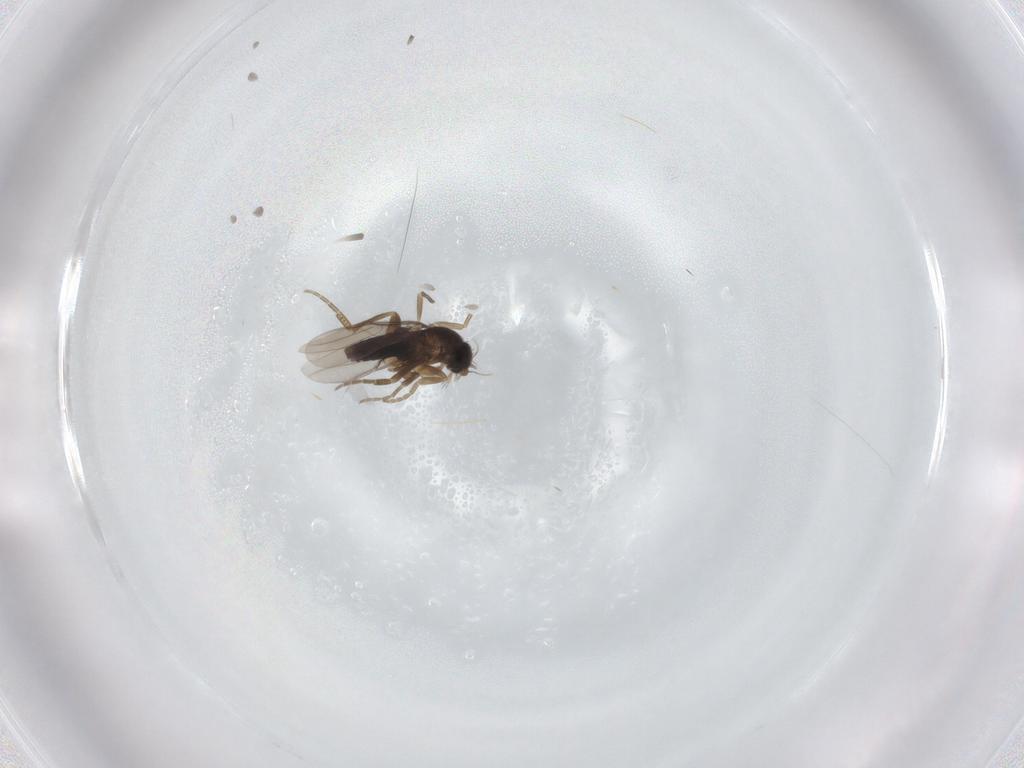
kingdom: Animalia
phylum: Arthropoda
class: Insecta
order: Diptera
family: Phoridae
